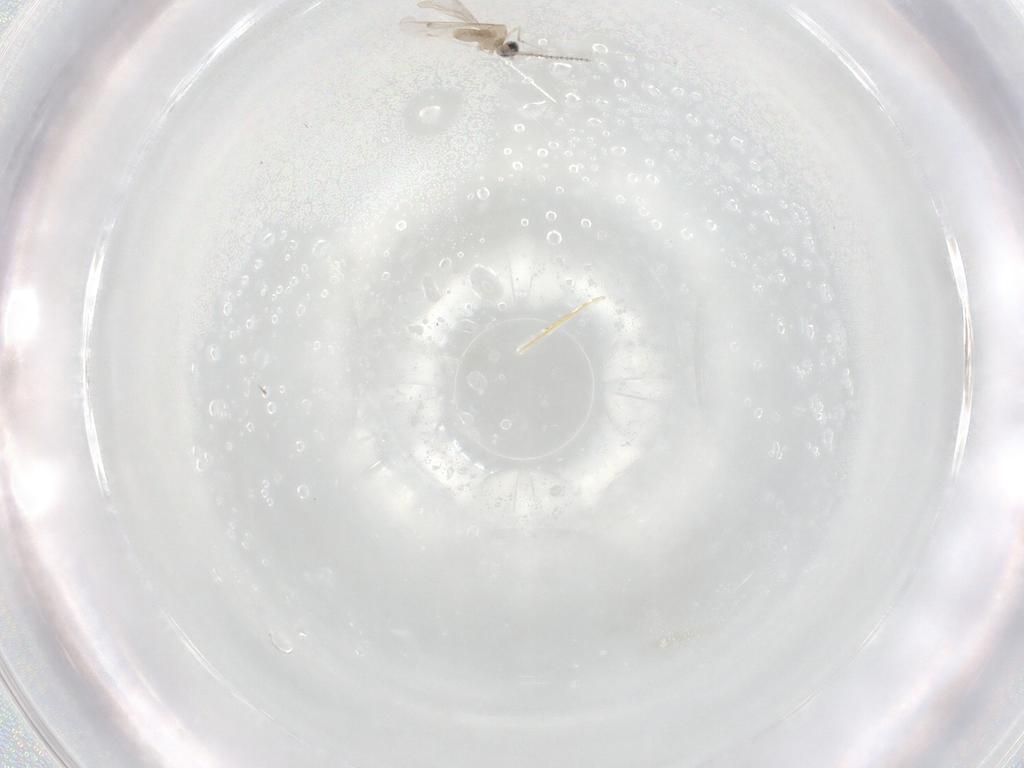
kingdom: Animalia
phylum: Arthropoda
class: Insecta
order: Diptera
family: Cecidomyiidae
